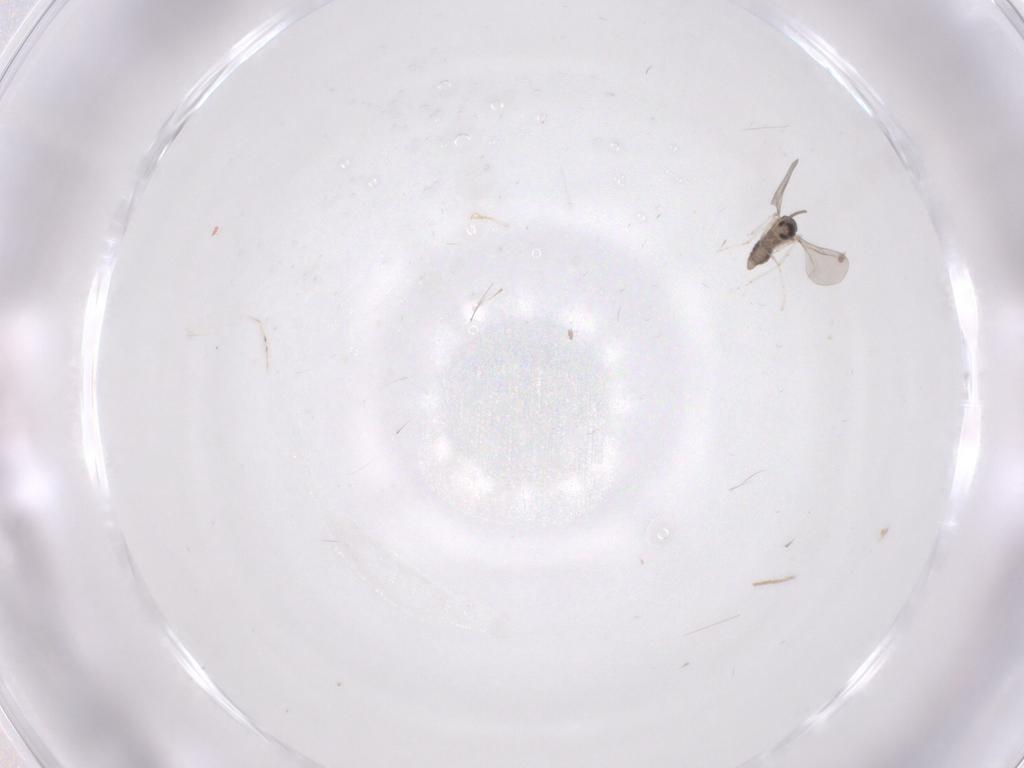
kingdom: Animalia
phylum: Arthropoda
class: Insecta
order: Diptera
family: Cecidomyiidae
